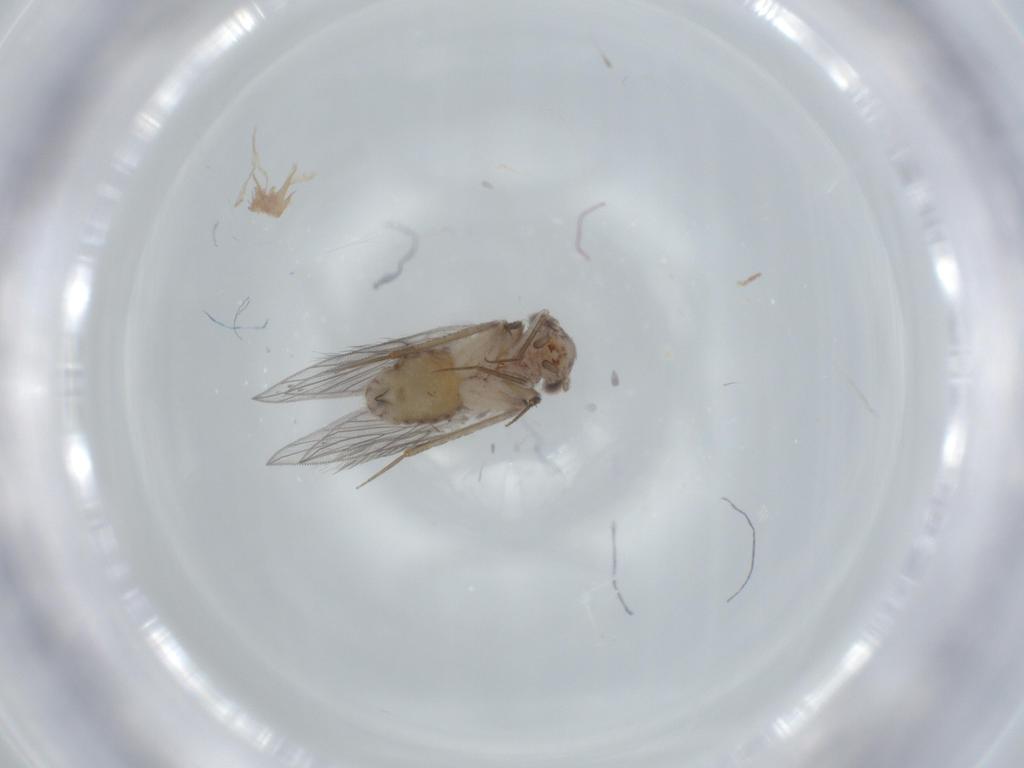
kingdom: Animalia
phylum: Arthropoda
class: Insecta
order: Psocodea
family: Lepidopsocidae
